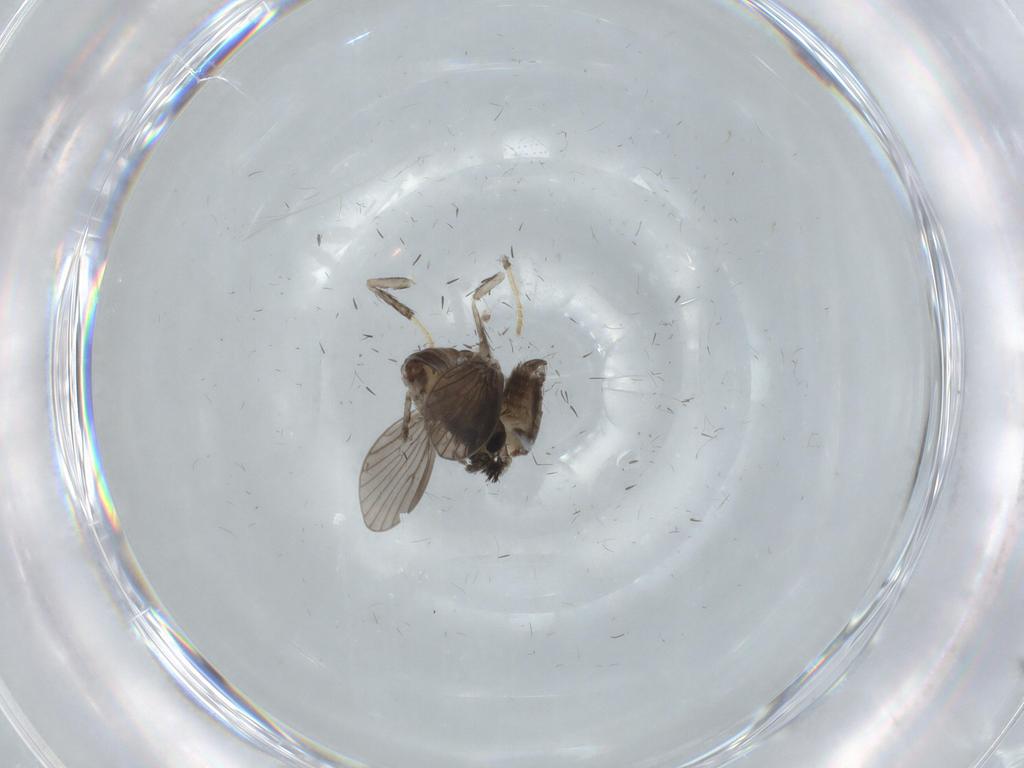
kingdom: Animalia
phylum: Arthropoda
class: Insecta
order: Diptera
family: Psychodidae
